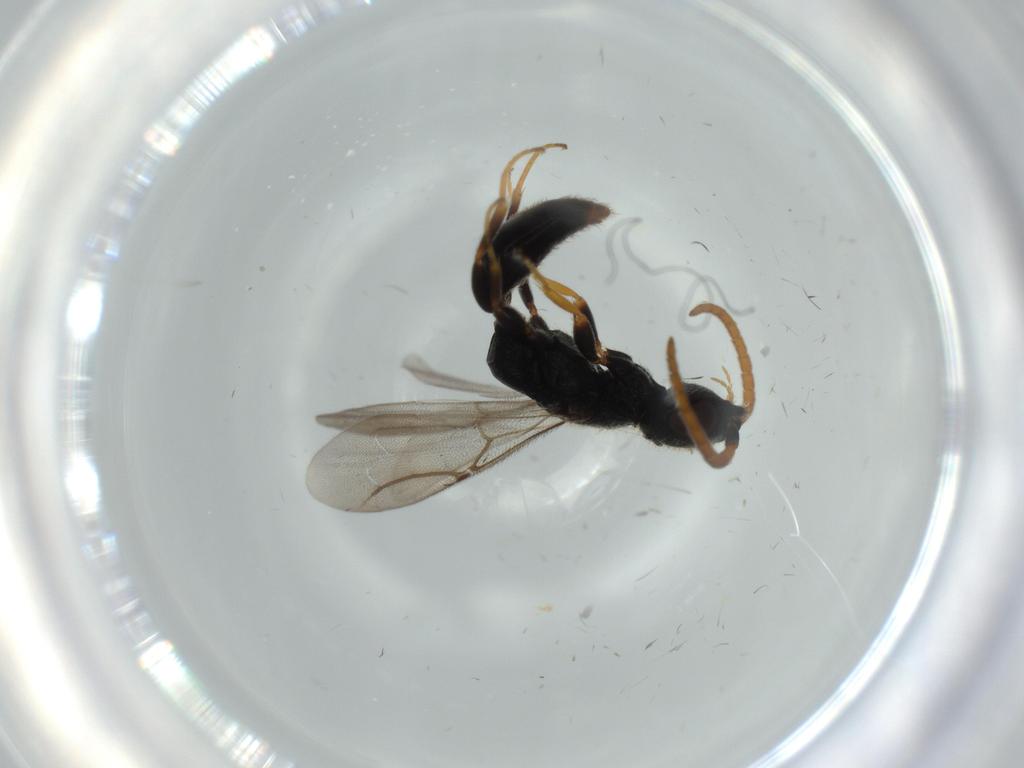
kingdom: Animalia
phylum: Arthropoda
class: Insecta
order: Hymenoptera
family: Bethylidae
